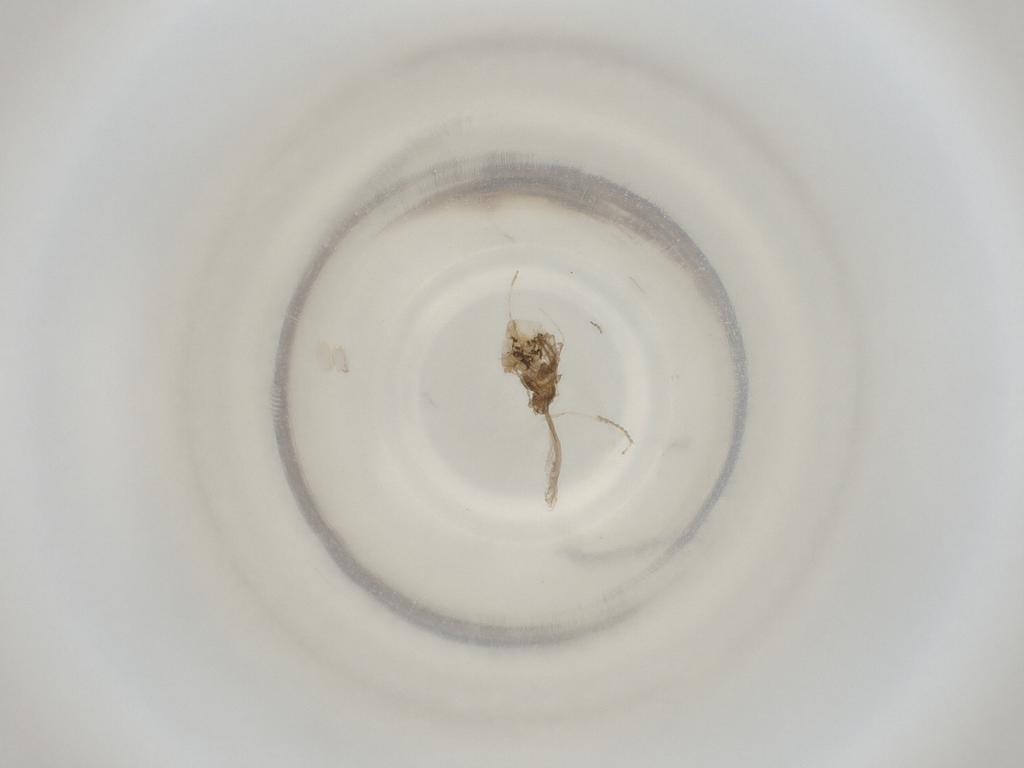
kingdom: Animalia
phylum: Arthropoda
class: Insecta
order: Diptera
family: Cecidomyiidae
